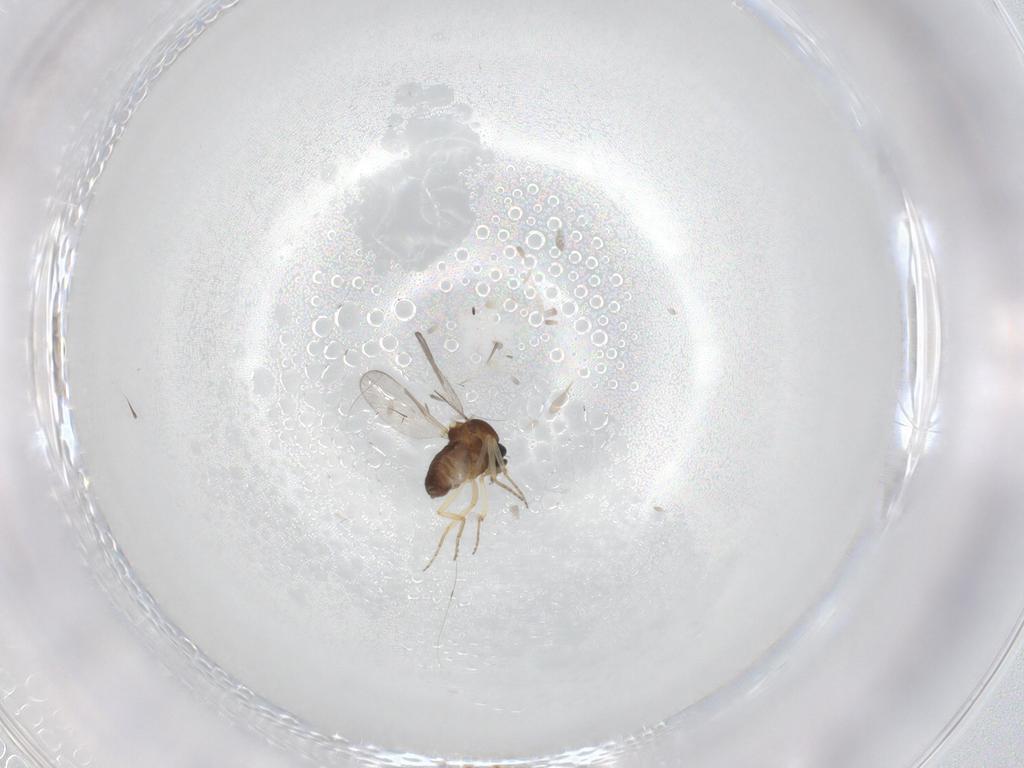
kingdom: Animalia
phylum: Arthropoda
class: Insecta
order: Diptera
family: Ceratopogonidae
